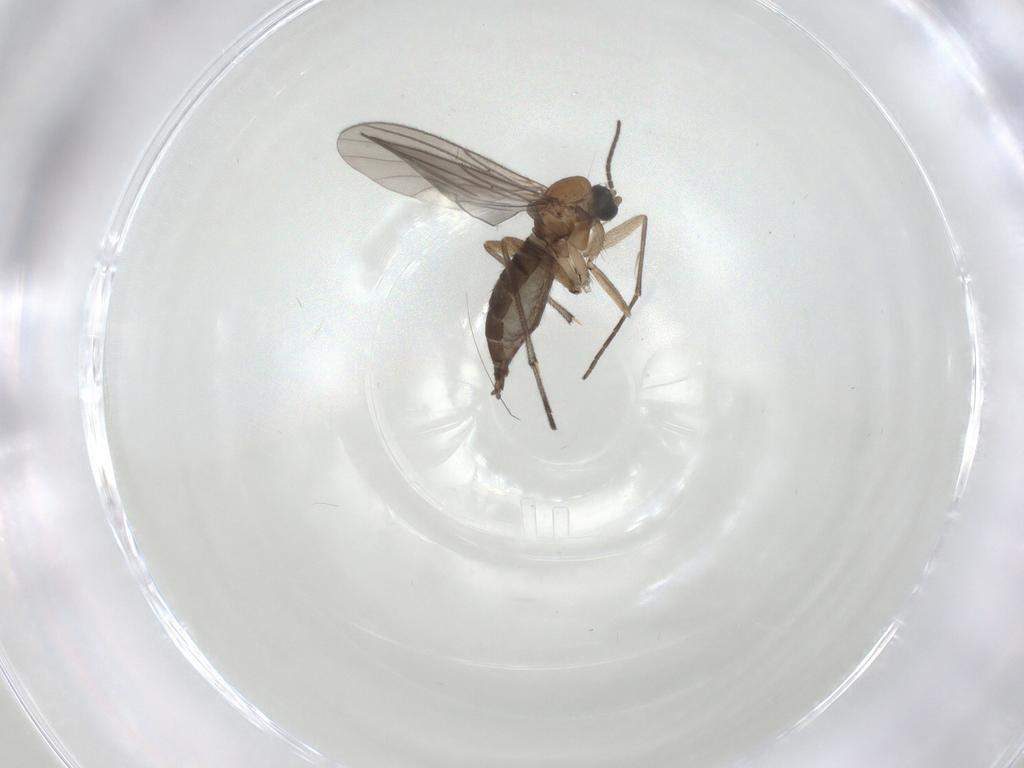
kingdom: Animalia
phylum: Arthropoda
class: Insecta
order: Diptera
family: Sciaridae
